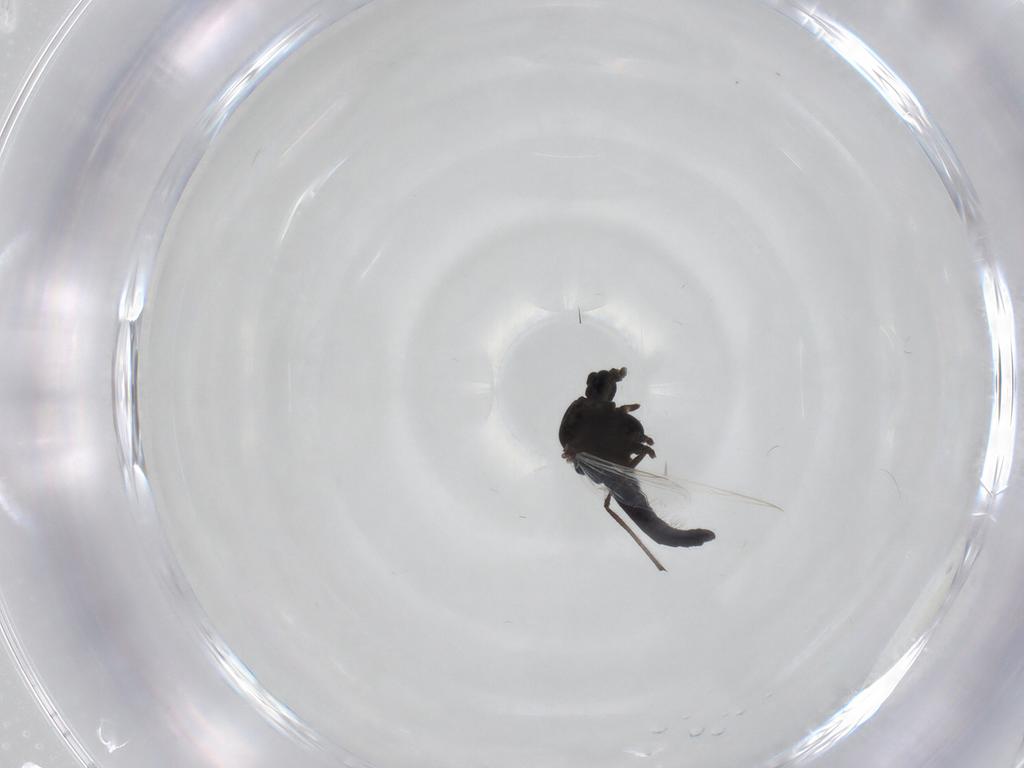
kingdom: Animalia
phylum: Arthropoda
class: Insecta
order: Diptera
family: Chironomidae
